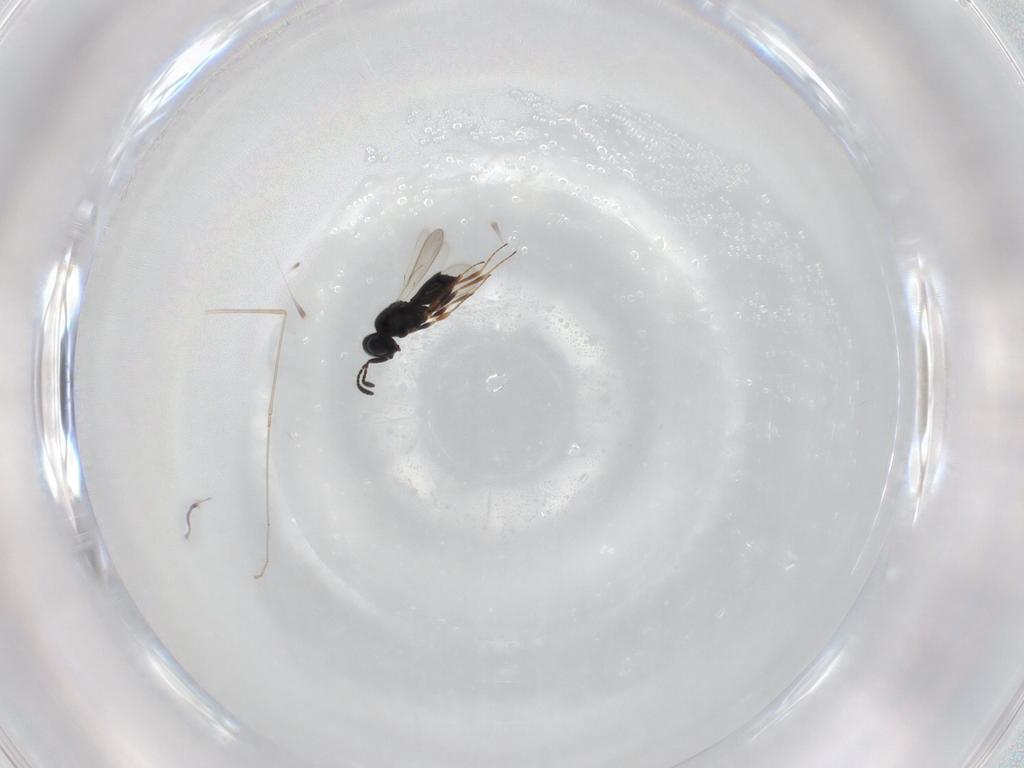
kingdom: Animalia
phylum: Arthropoda
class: Insecta
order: Hymenoptera
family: Scelionidae
